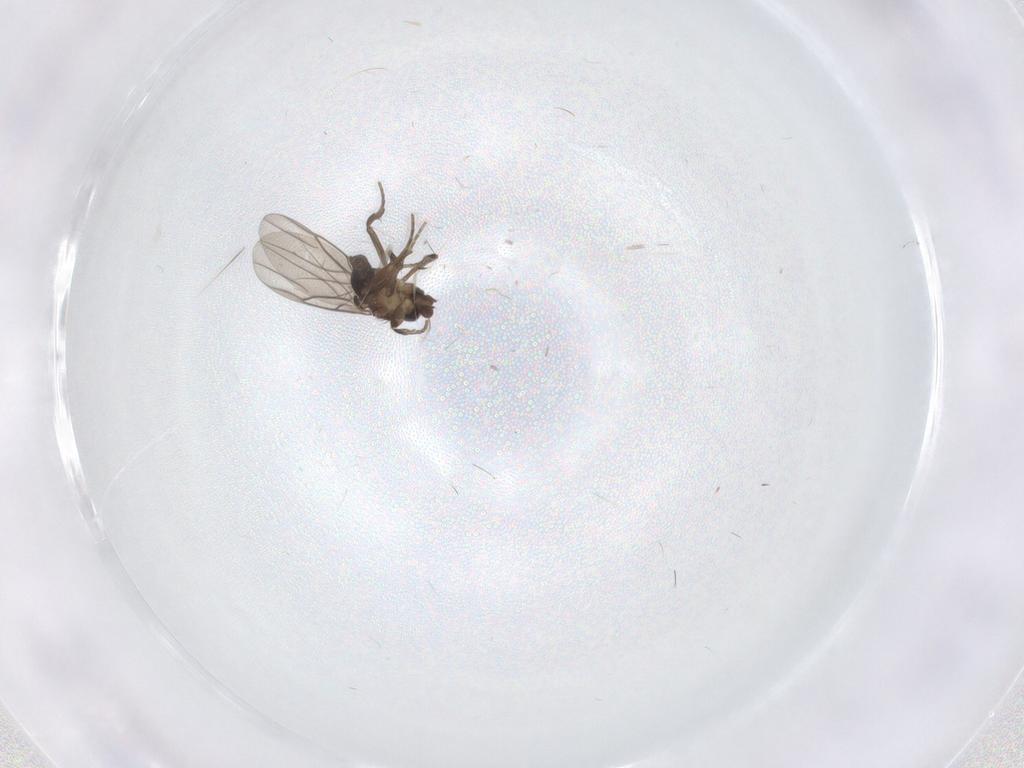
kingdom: Animalia
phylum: Arthropoda
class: Insecta
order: Diptera
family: Phoridae
